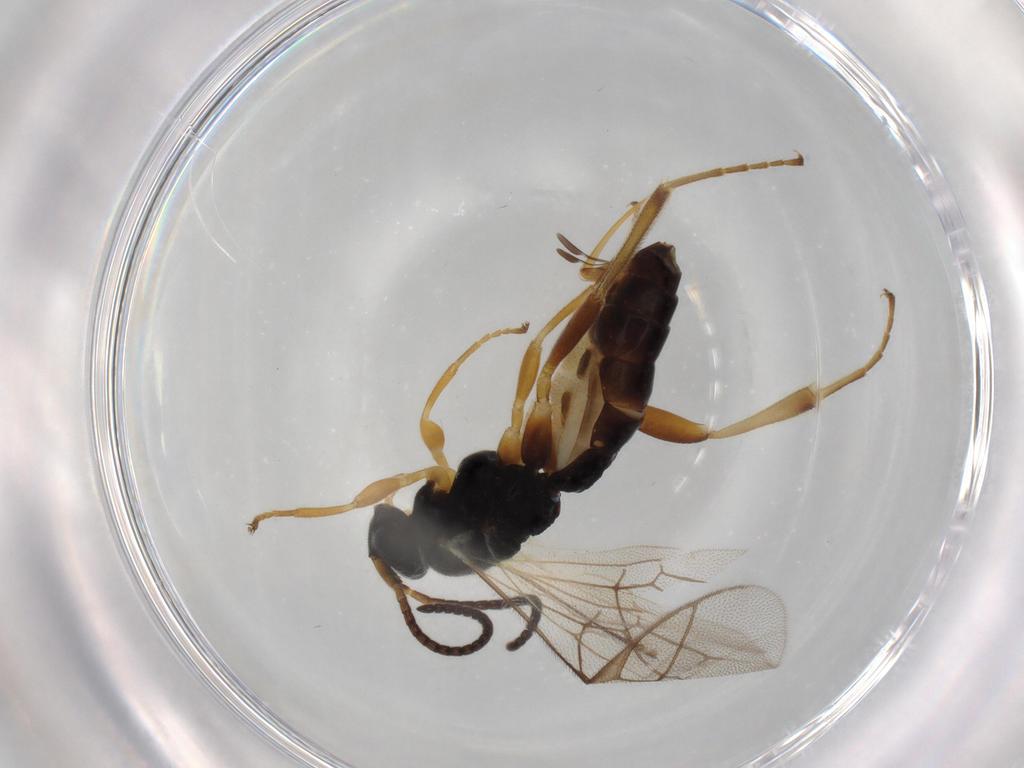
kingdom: Animalia
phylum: Arthropoda
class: Insecta
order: Hymenoptera
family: Ichneumonidae
